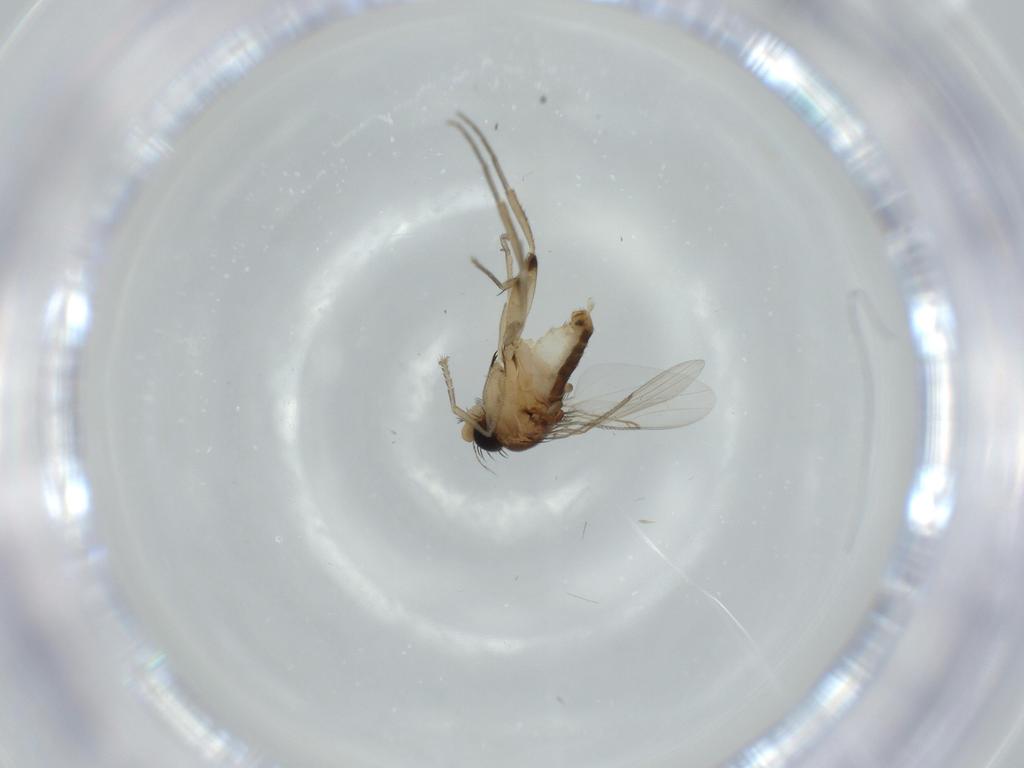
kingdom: Animalia
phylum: Arthropoda
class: Insecta
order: Diptera
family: Phoridae
